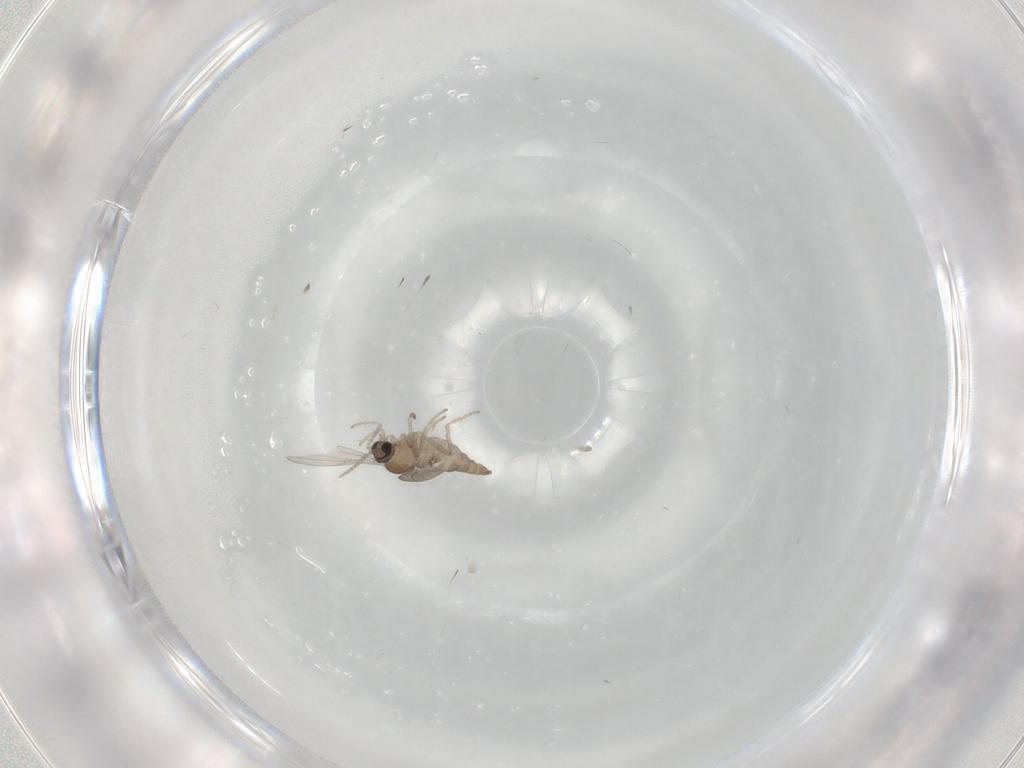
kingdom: Animalia
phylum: Arthropoda
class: Insecta
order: Diptera
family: Cecidomyiidae
